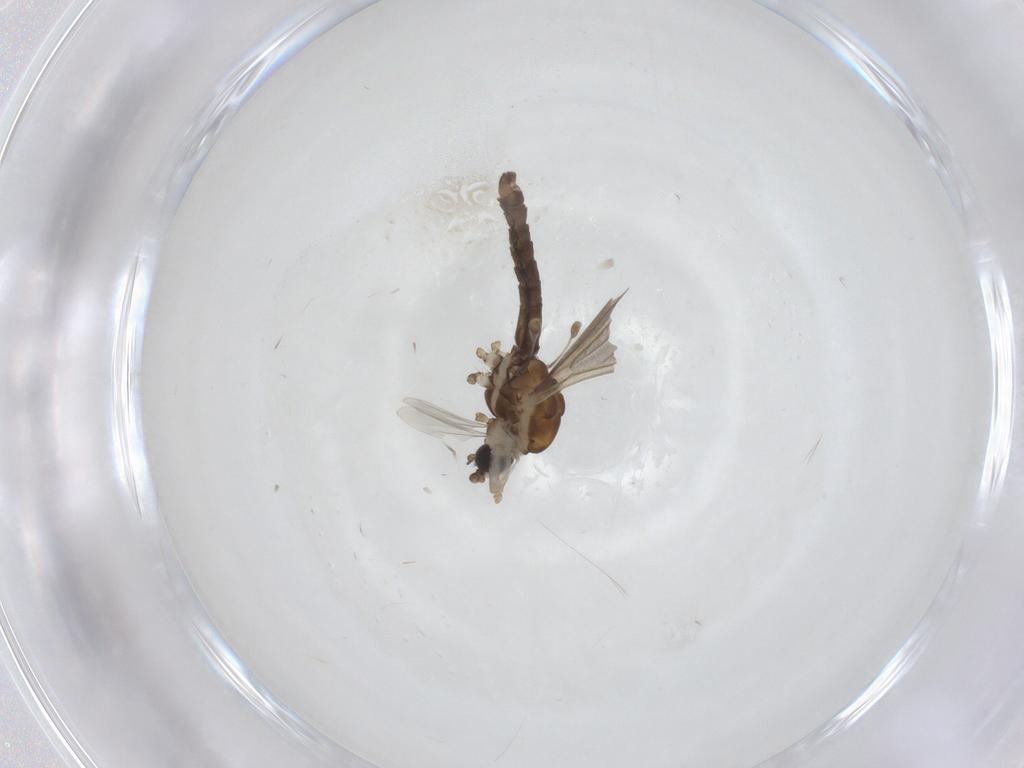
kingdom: Animalia
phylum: Arthropoda
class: Insecta
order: Diptera
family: Limoniidae
